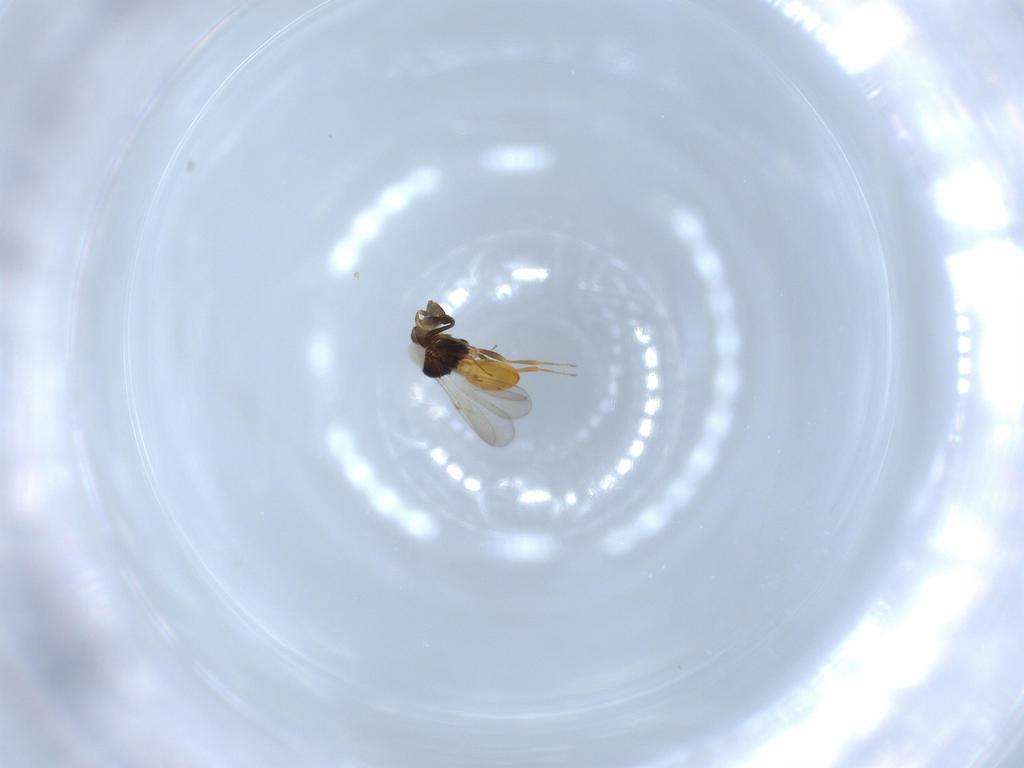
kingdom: Animalia
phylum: Arthropoda
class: Insecta
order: Hymenoptera
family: Scelionidae
